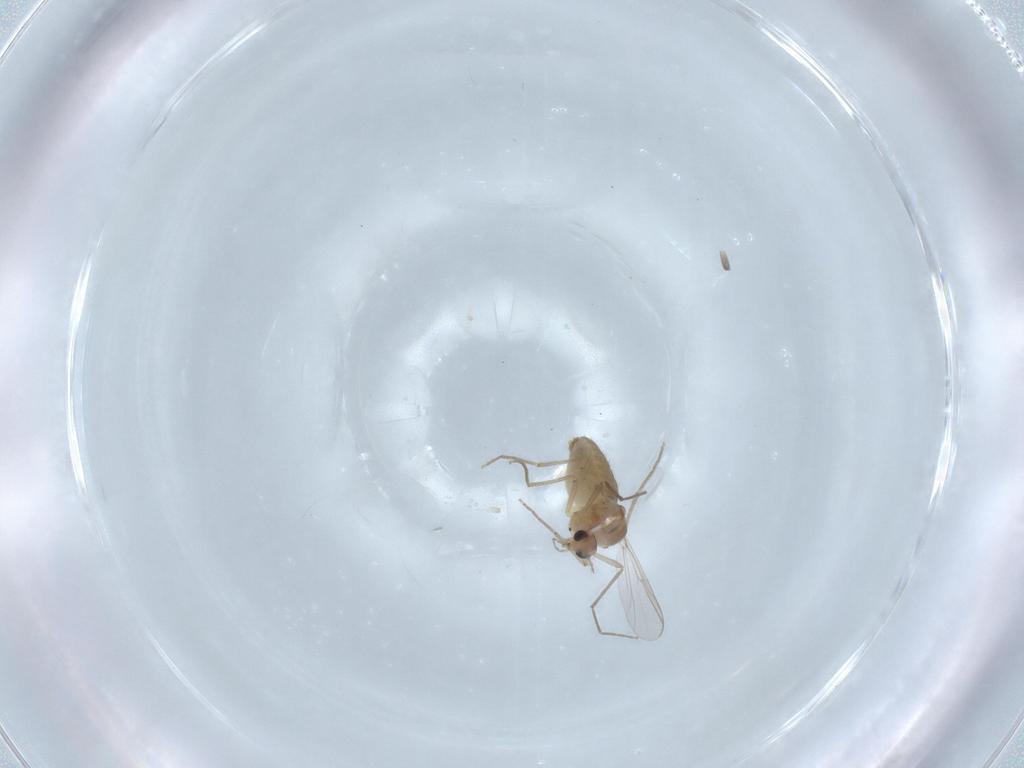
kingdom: Animalia
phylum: Arthropoda
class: Insecta
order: Diptera
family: Chironomidae
